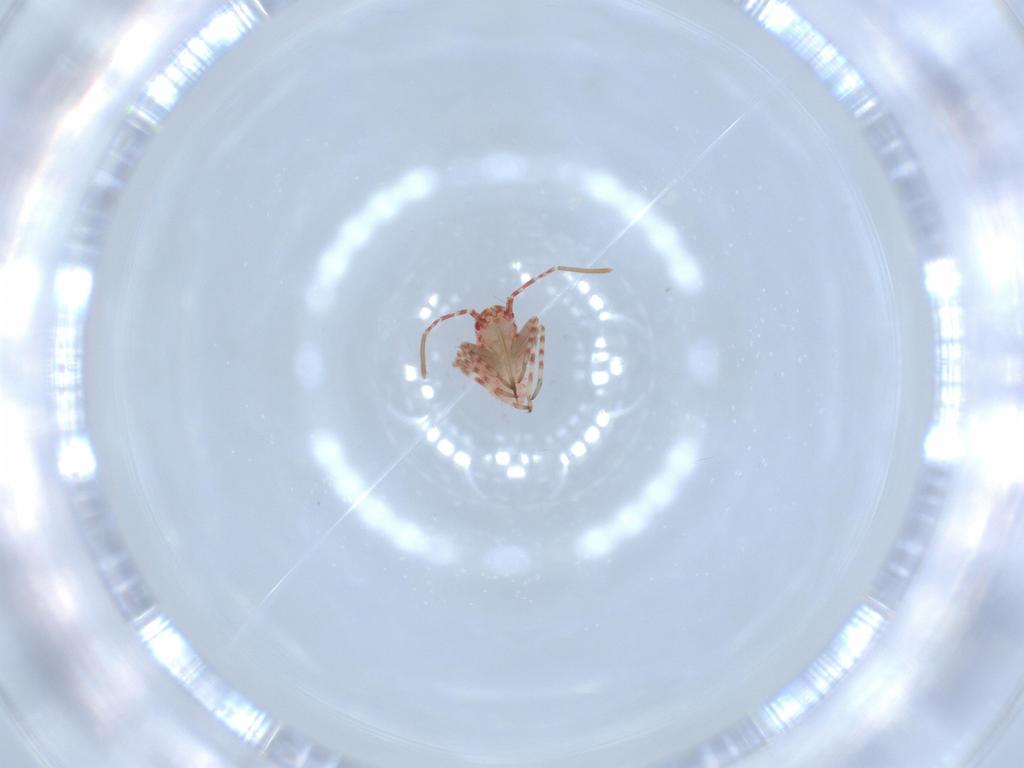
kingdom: Animalia
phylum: Arthropoda
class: Insecta
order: Hemiptera
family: Miridae
